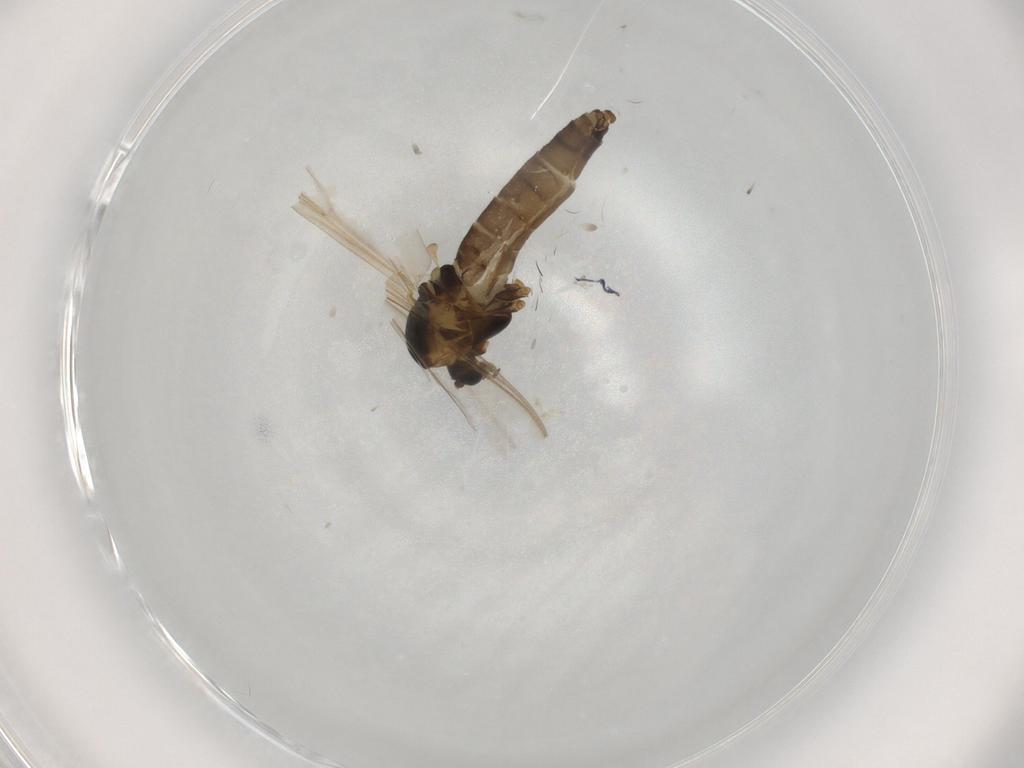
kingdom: Animalia
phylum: Arthropoda
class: Insecta
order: Diptera
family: Chironomidae
